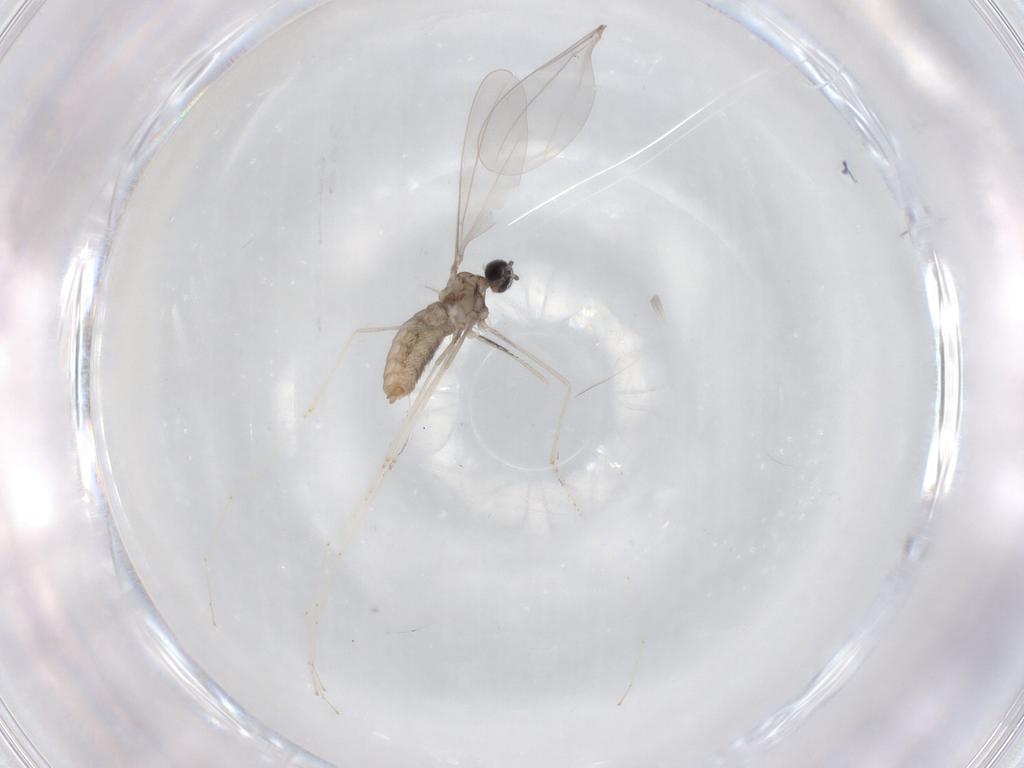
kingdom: Animalia
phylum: Arthropoda
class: Insecta
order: Diptera
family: Cecidomyiidae
